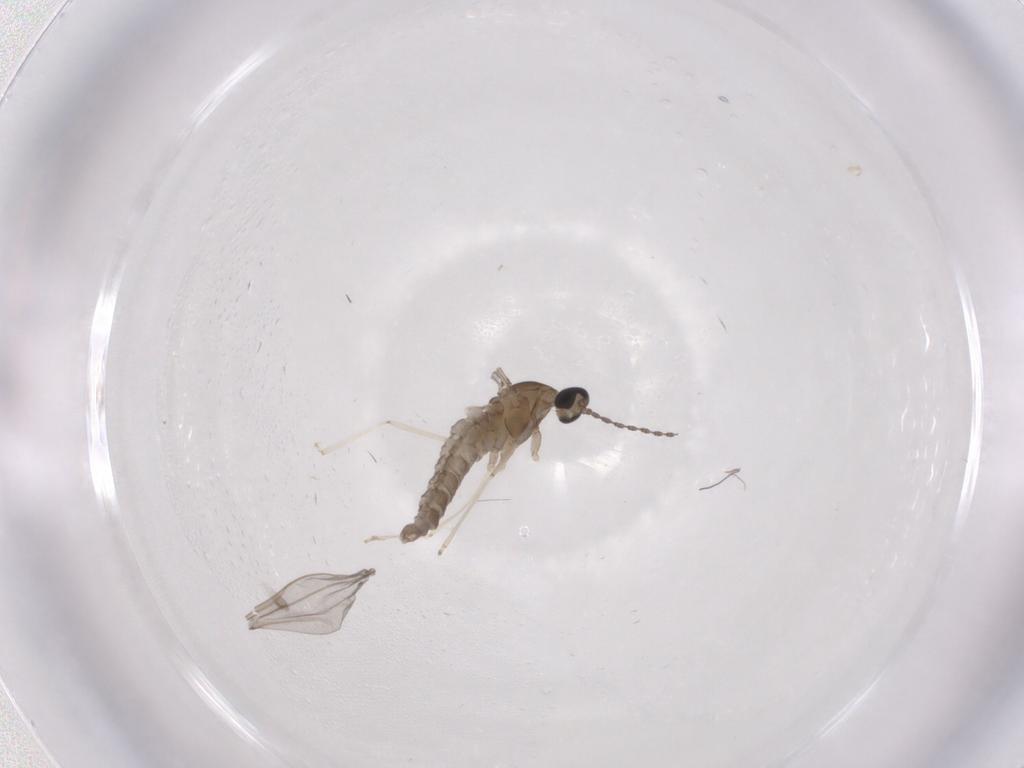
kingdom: Animalia
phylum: Arthropoda
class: Insecta
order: Diptera
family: Cecidomyiidae
